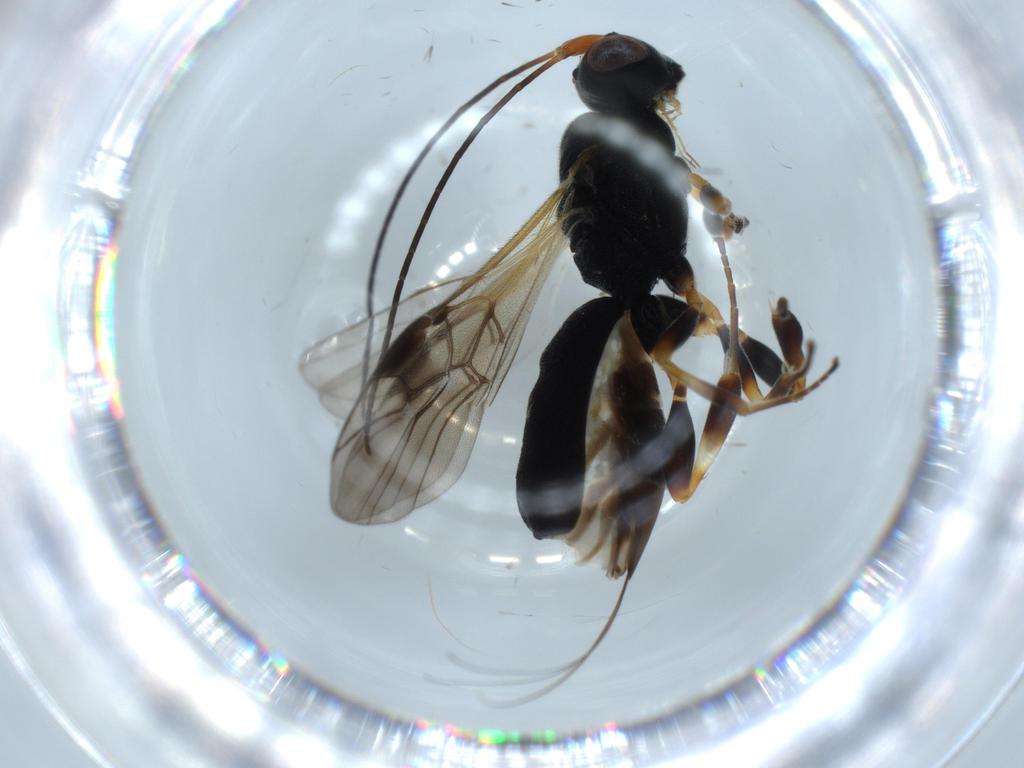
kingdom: Animalia
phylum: Arthropoda
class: Insecta
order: Hymenoptera
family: Braconidae
